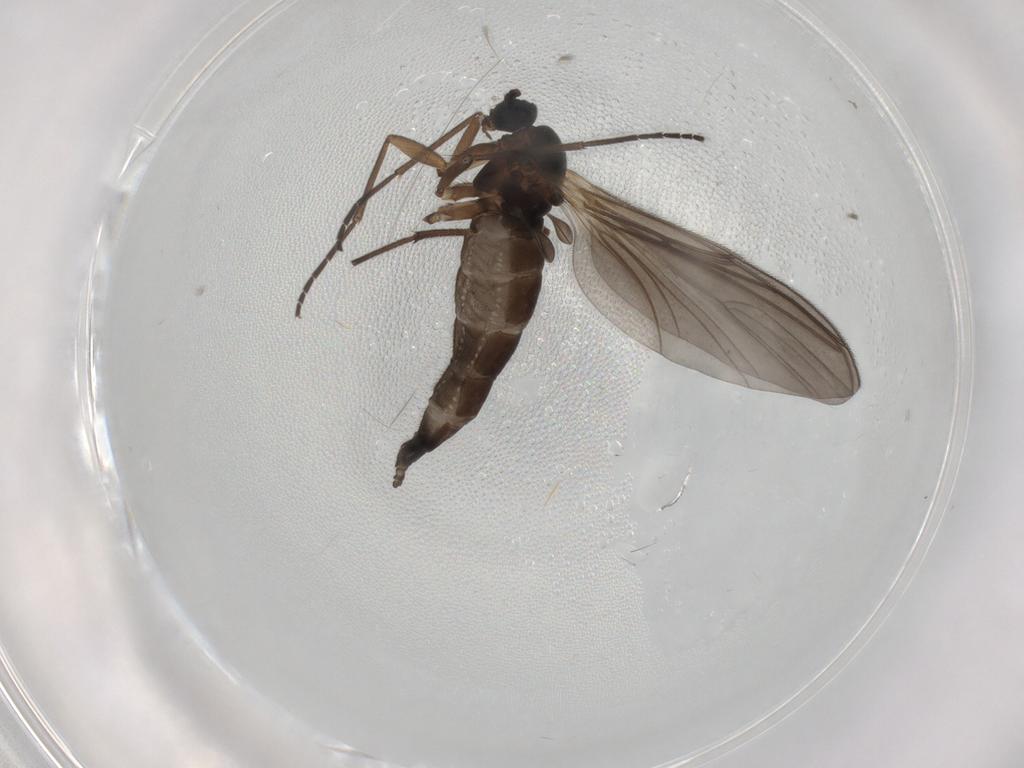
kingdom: Animalia
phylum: Arthropoda
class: Insecta
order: Diptera
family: Sciaridae
